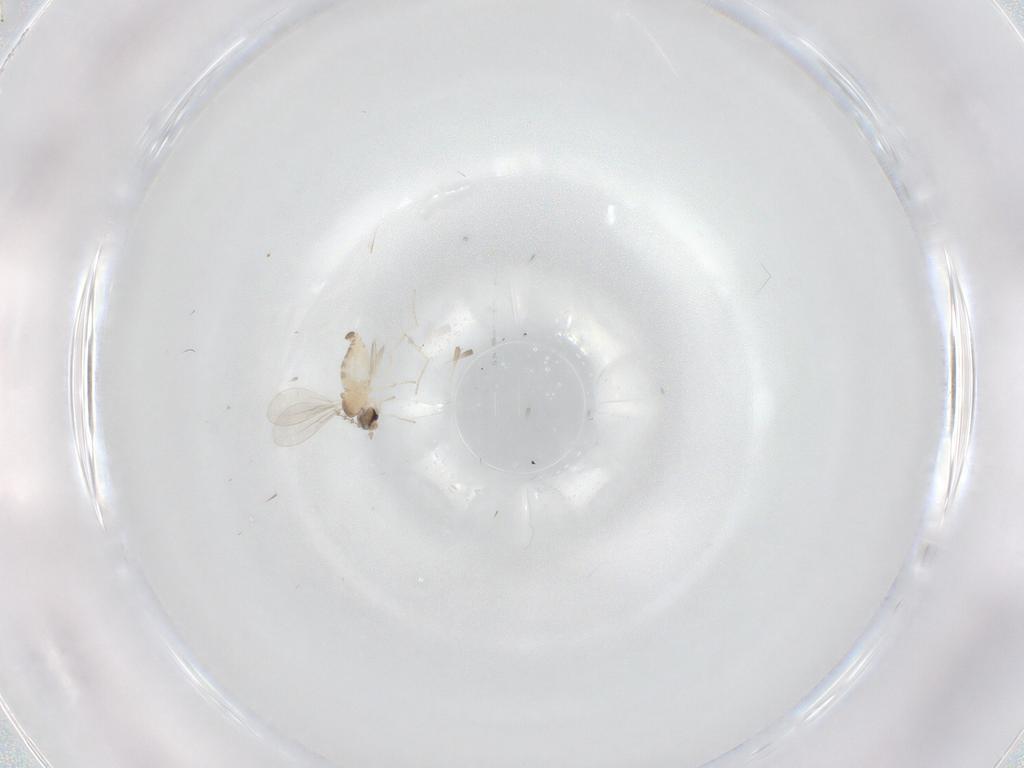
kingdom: Animalia
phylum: Arthropoda
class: Insecta
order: Diptera
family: Cecidomyiidae
